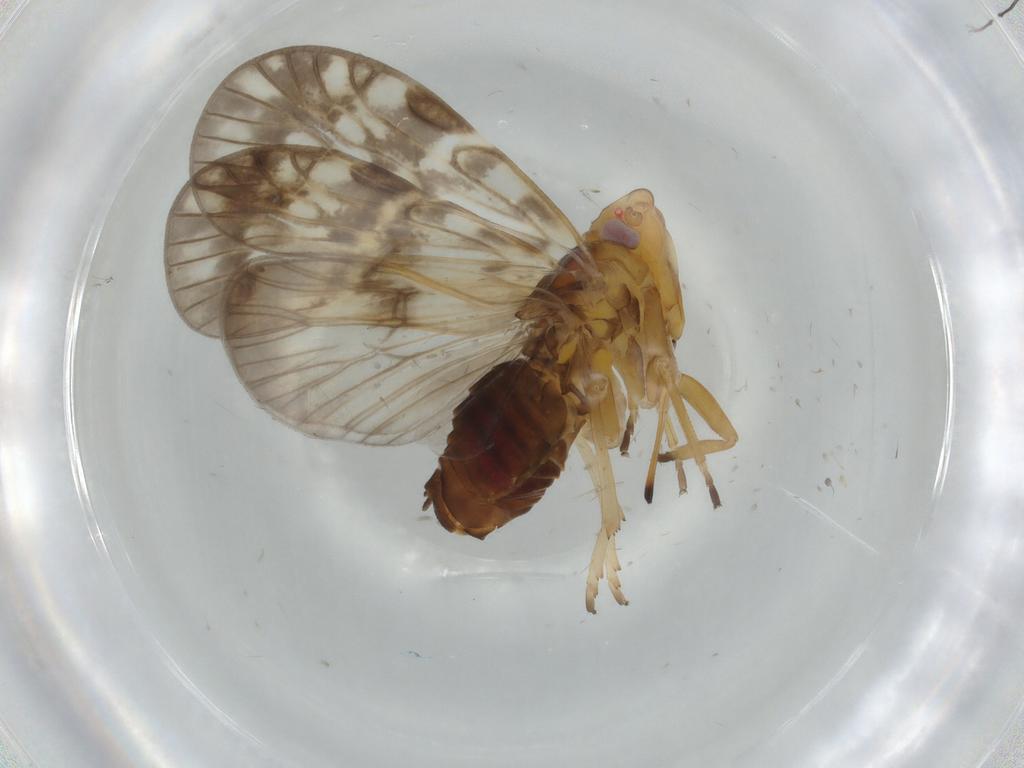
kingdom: Animalia
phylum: Arthropoda
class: Insecta
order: Hemiptera
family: Cixiidae
